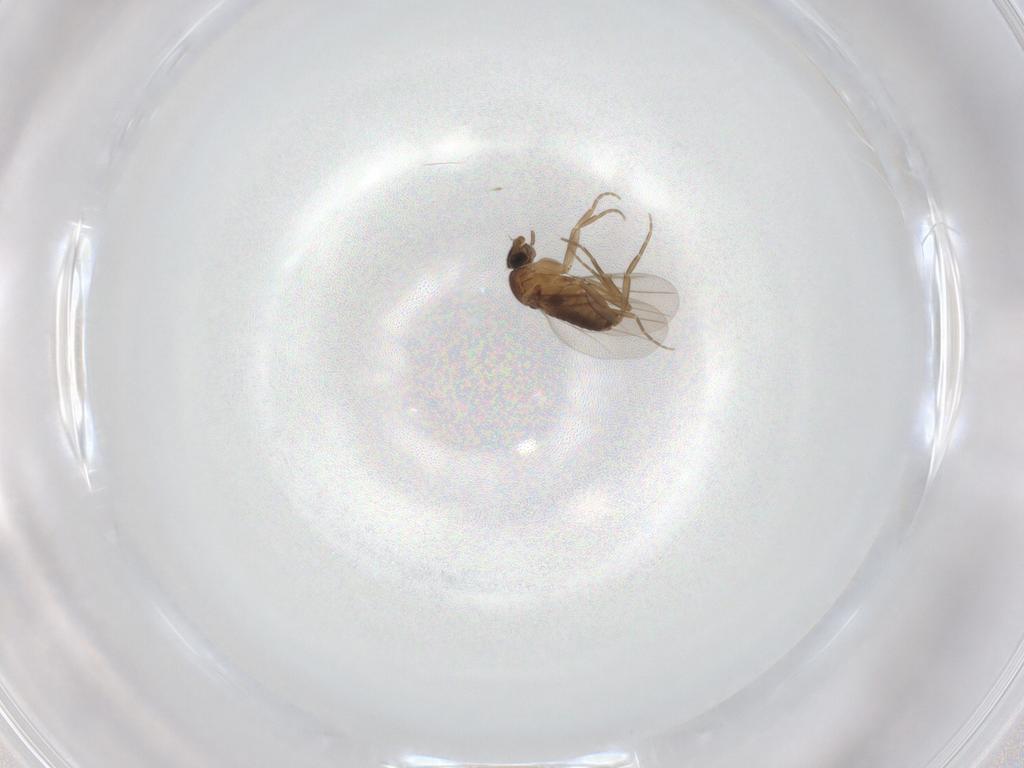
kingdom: Animalia
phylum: Arthropoda
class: Insecta
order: Diptera
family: Phoridae
